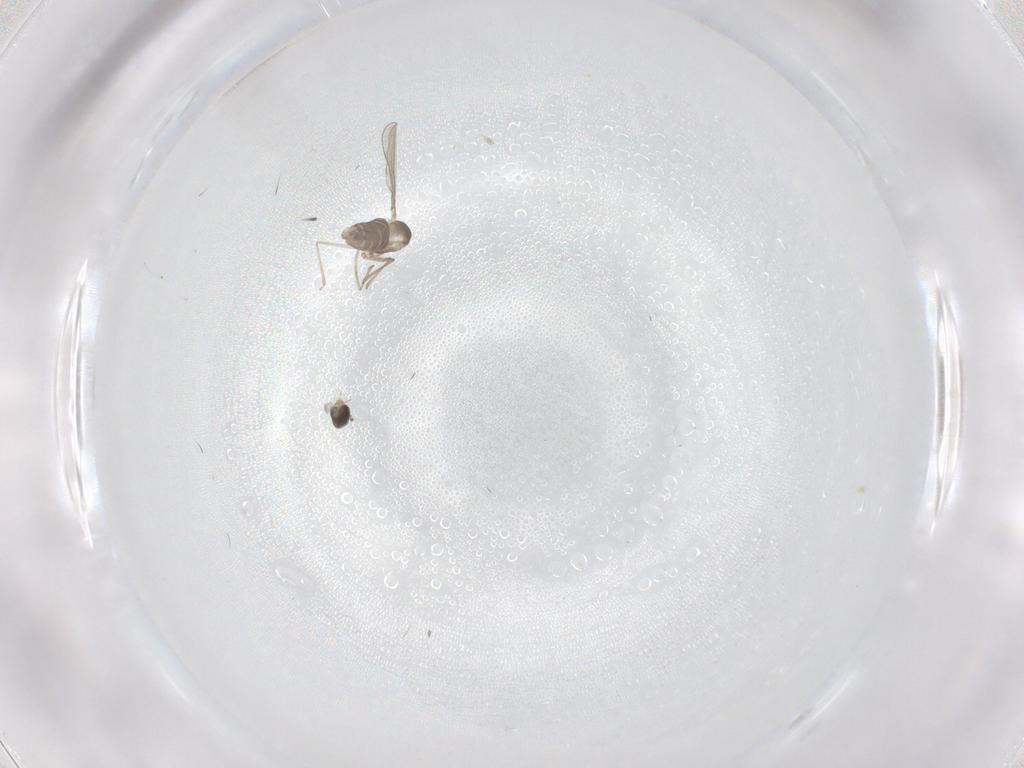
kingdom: Animalia
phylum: Arthropoda
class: Insecta
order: Diptera
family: Cecidomyiidae
